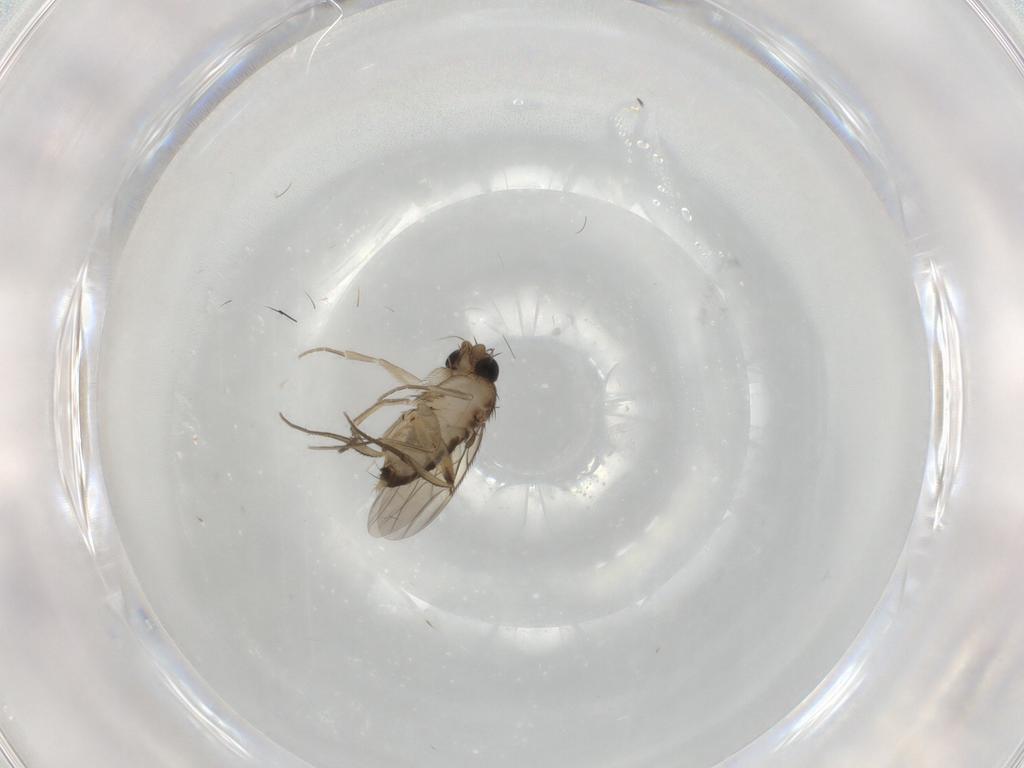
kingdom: Animalia
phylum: Arthropoda
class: Insecta
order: Diptera
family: Phoridae
